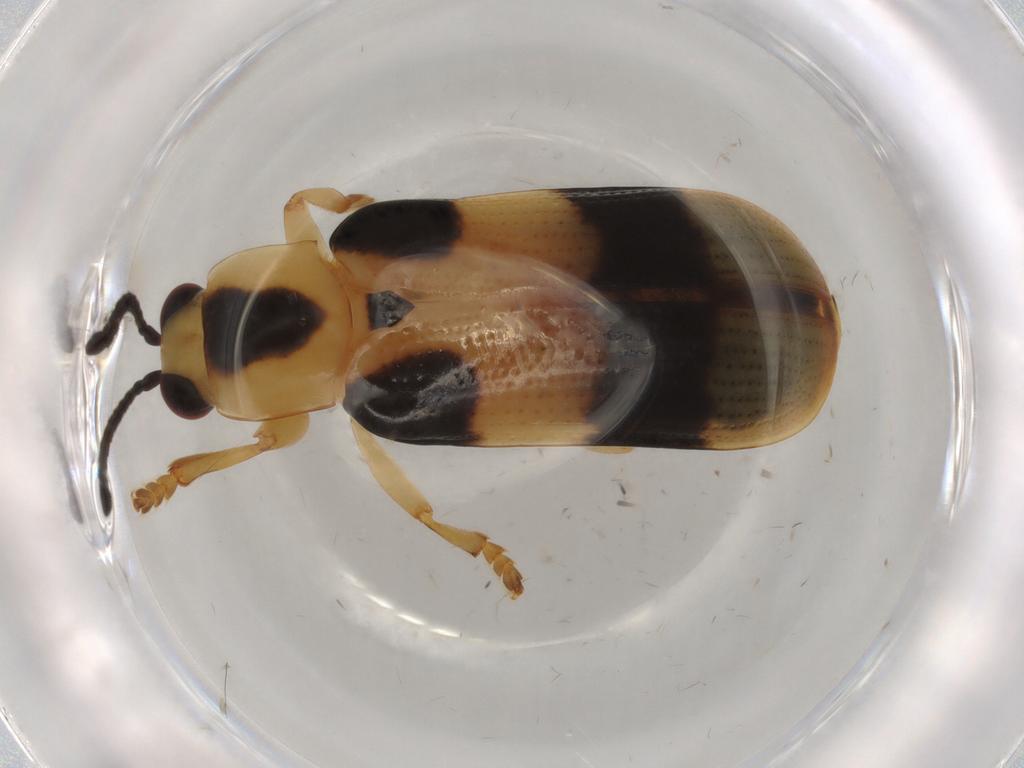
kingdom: Animalia
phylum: Arthropoda
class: Insecta
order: Coleoptera
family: Chrysomelidae
